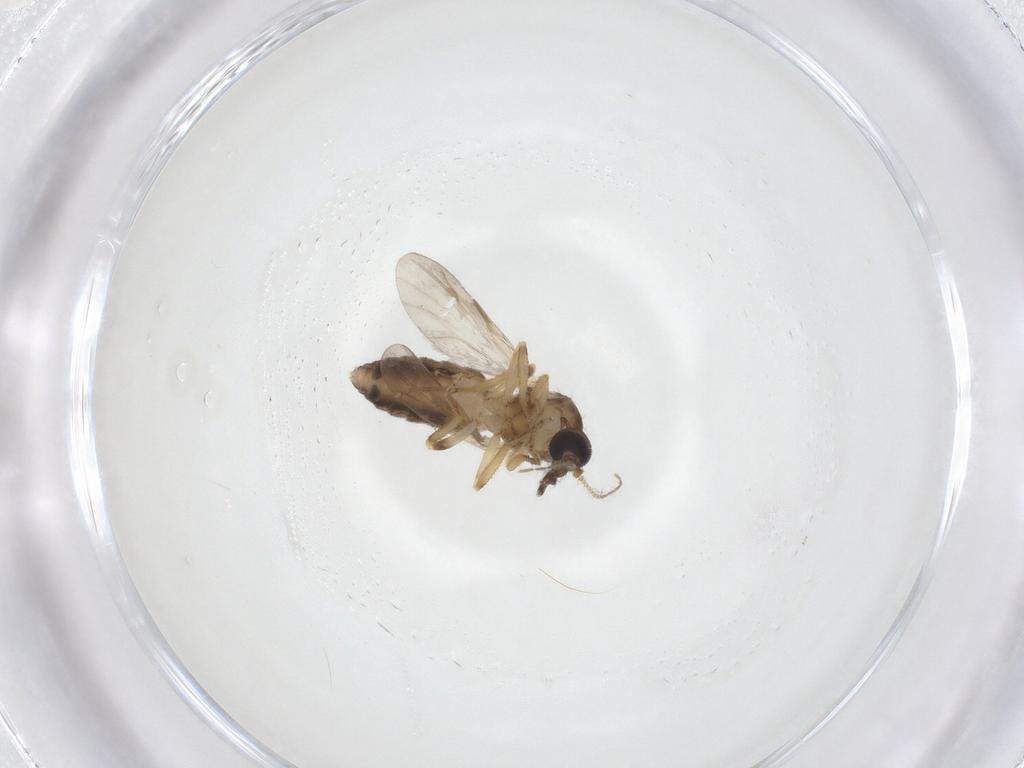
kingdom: Animalia
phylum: Arthropoda
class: Insecta
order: Diptera
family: Ceratopogonidae
